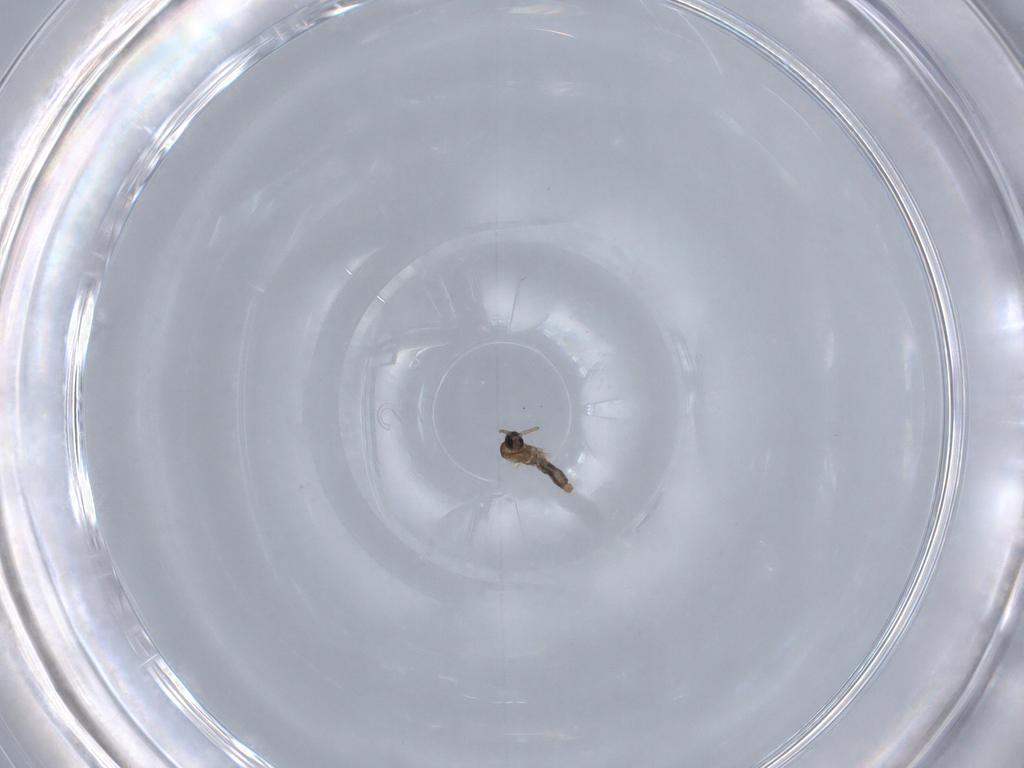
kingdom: Animalia
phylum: Arthropoda
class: Insecta
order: Diptera
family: Cecidomyiidae
